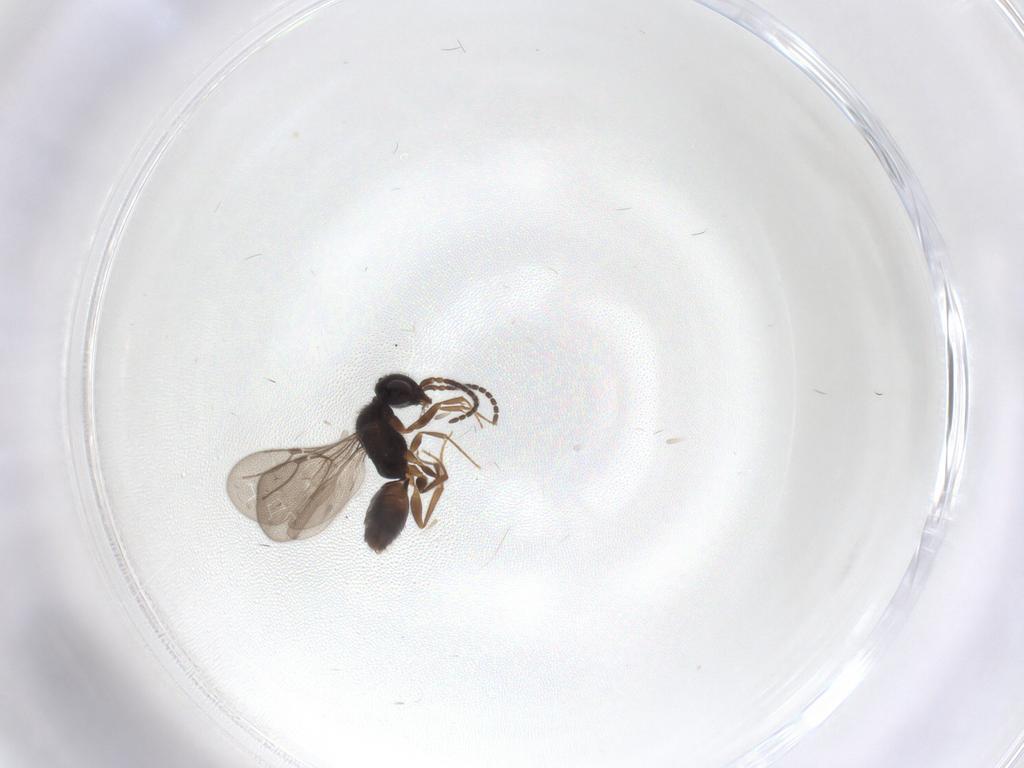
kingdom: Animalia
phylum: Arthropoda
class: Insecta
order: Hymenoptera
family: Bethylidae
